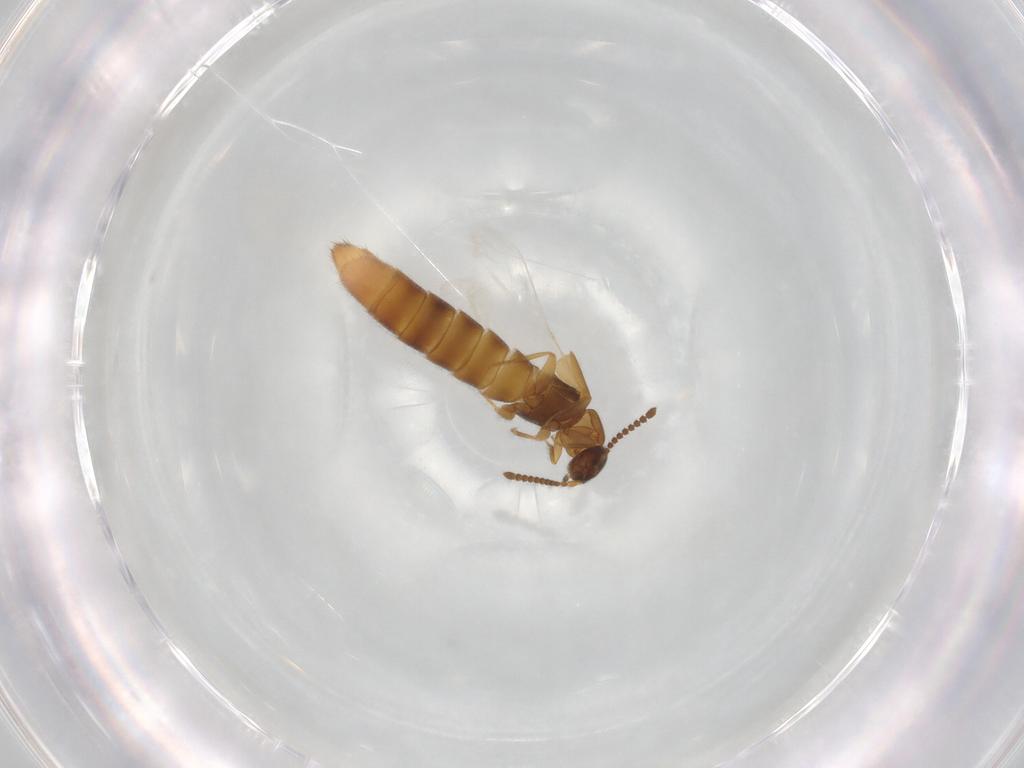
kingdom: Animalia
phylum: Arthropoda
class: Insecta
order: Coleoptera
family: Staphylinidae
